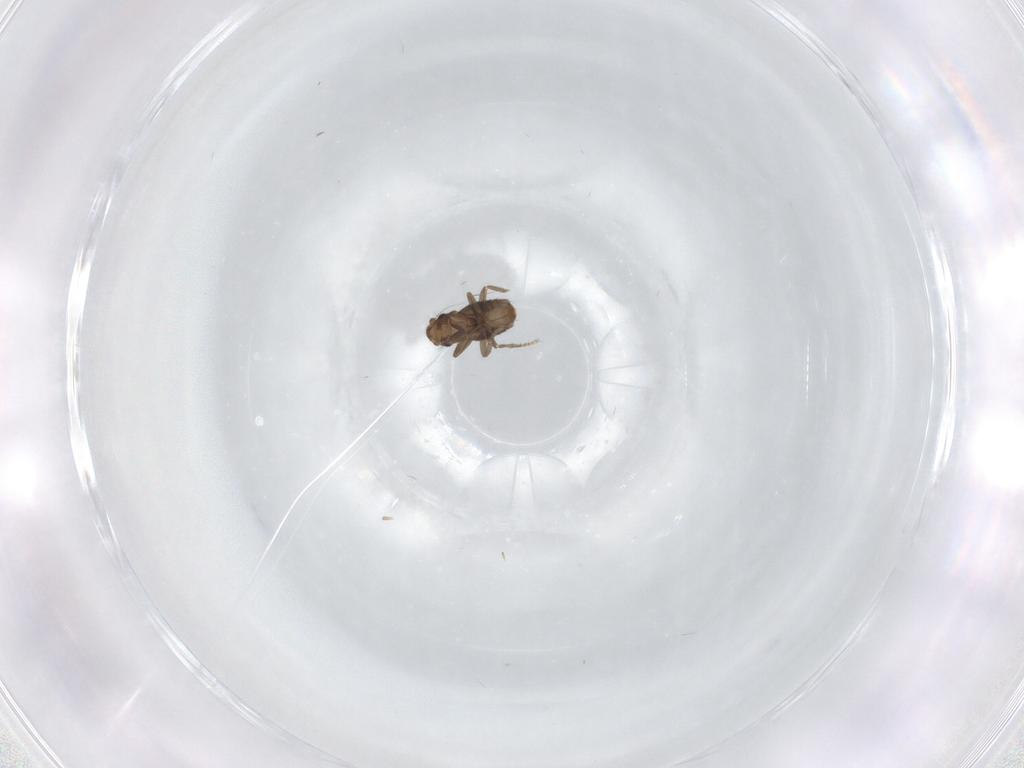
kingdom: Animalia
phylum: Arthropoda
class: Insecta
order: Diptera
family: Phoridae
